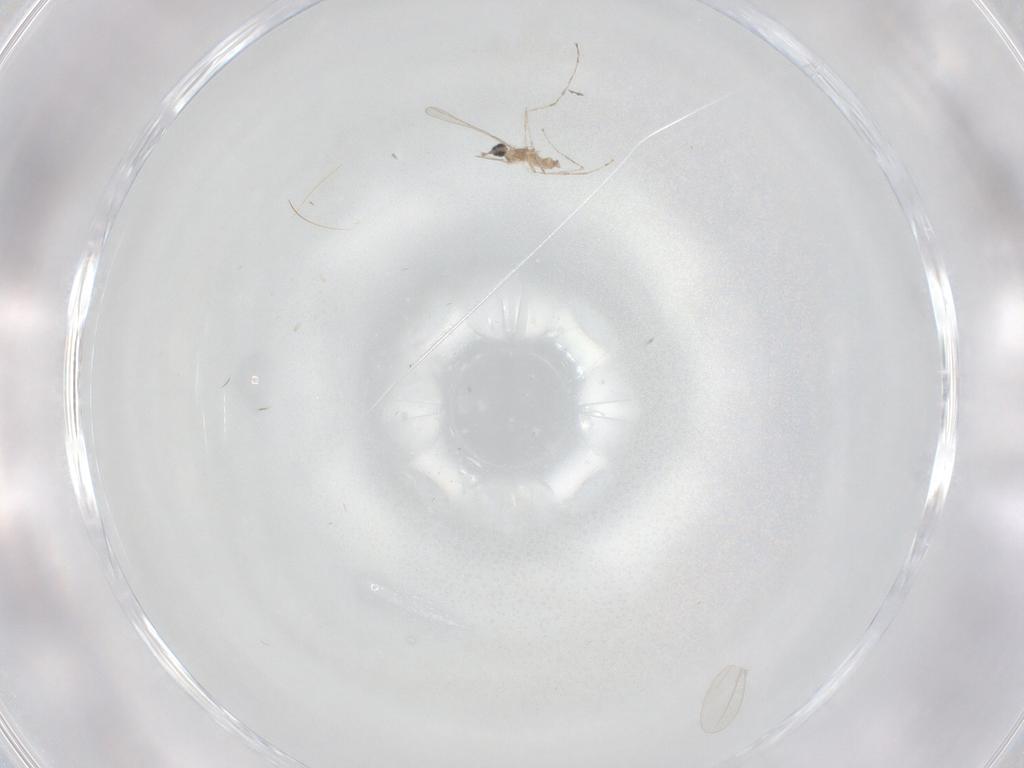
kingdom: Animalia
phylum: Arthropoda
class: Insecta
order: Diptera
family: Cecidomyiidae
